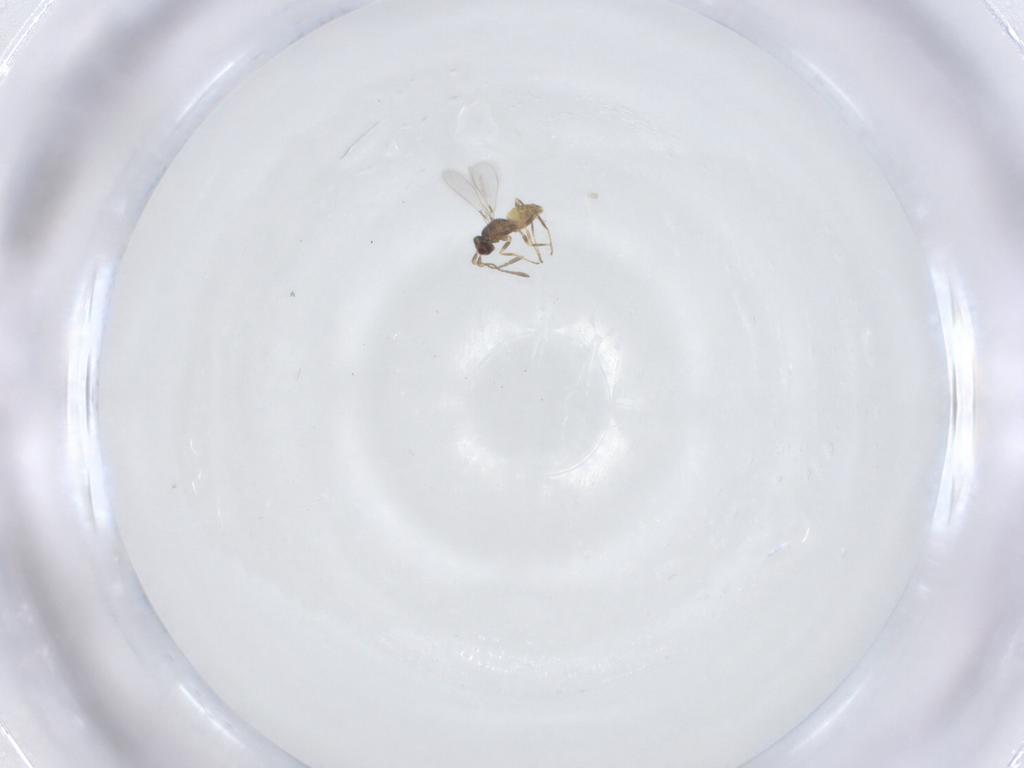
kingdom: Animalia
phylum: Arthropoda
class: Insecta
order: Hymenoptera
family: Mymaridae
